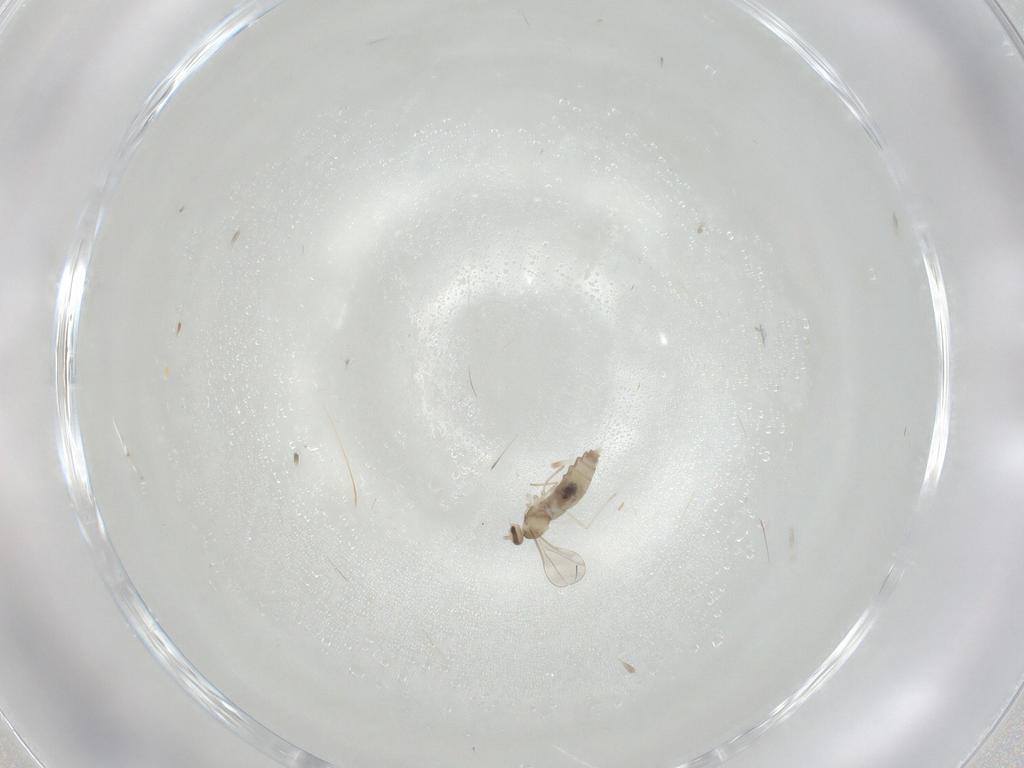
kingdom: Animalia
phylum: Arthropoda
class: Insecta
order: Diptera
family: Cecidomyiidae
